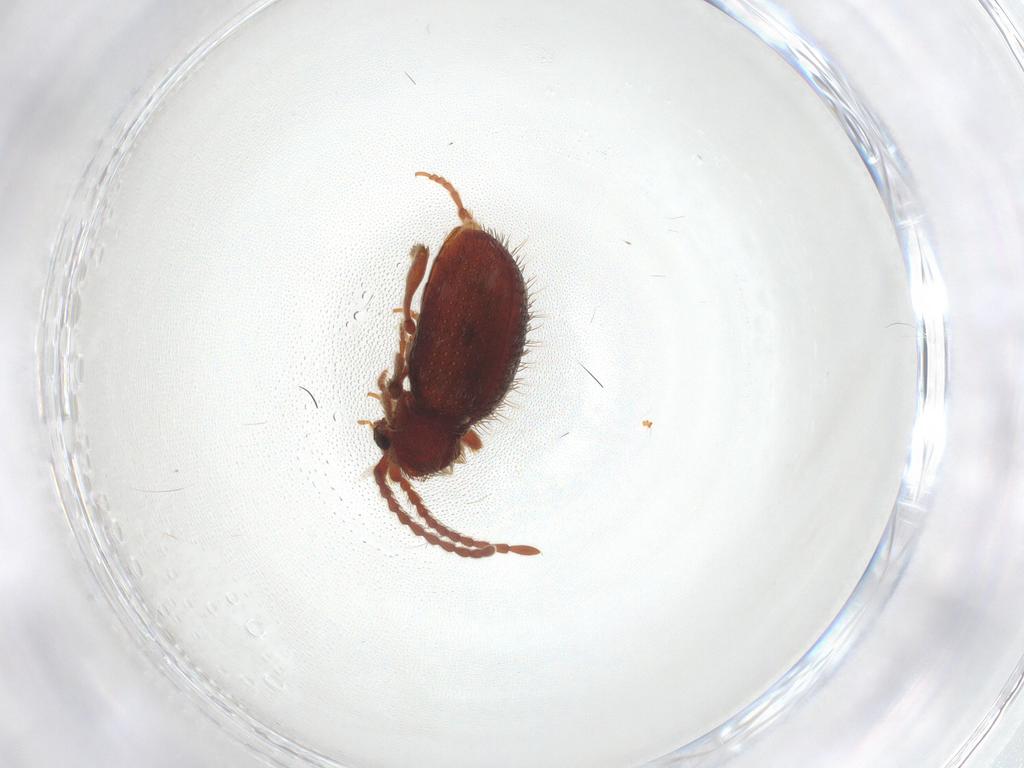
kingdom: Animalia
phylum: Arthropoda
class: Insecta
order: Coleoptera
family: Ptinidae
